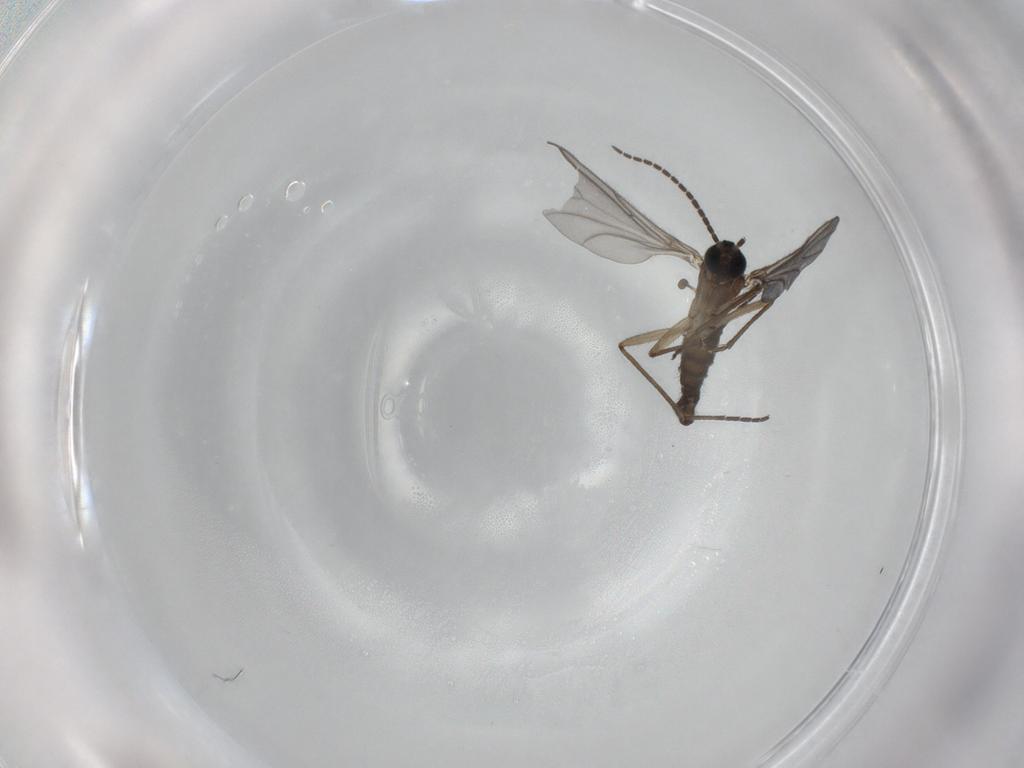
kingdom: Animalia
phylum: Arthropoda
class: Insecta
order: Diptera
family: Sciaridae
